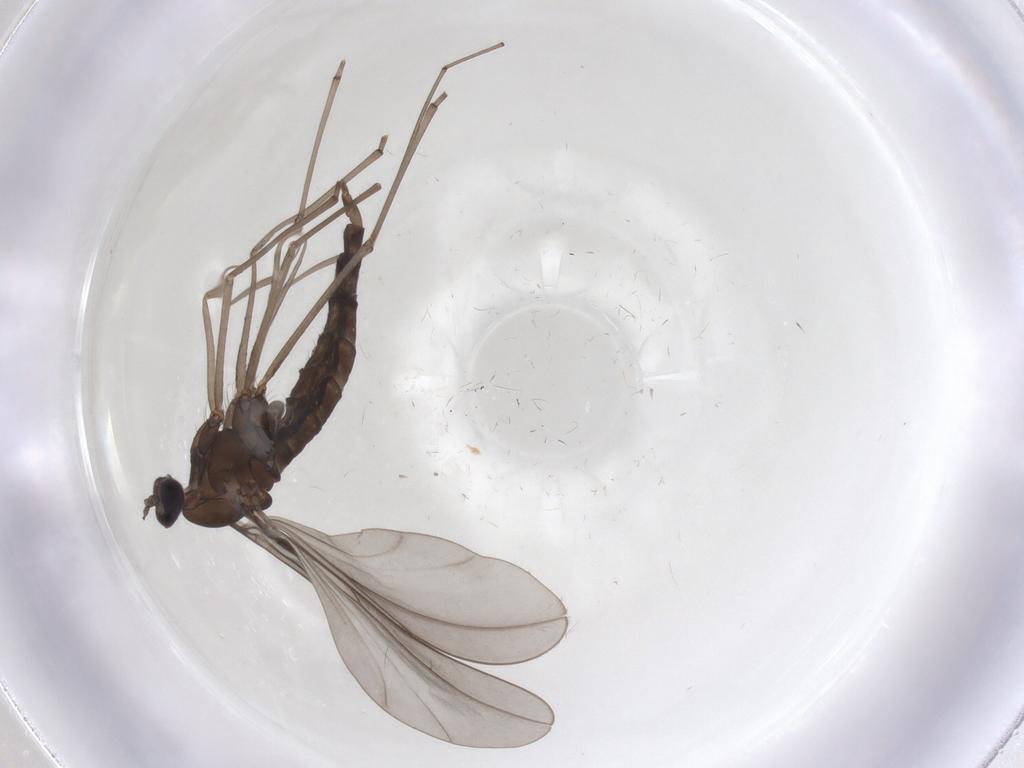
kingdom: Animalia
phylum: Arthropoda
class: Insecta
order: Diptera
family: Cecidomyiidae
